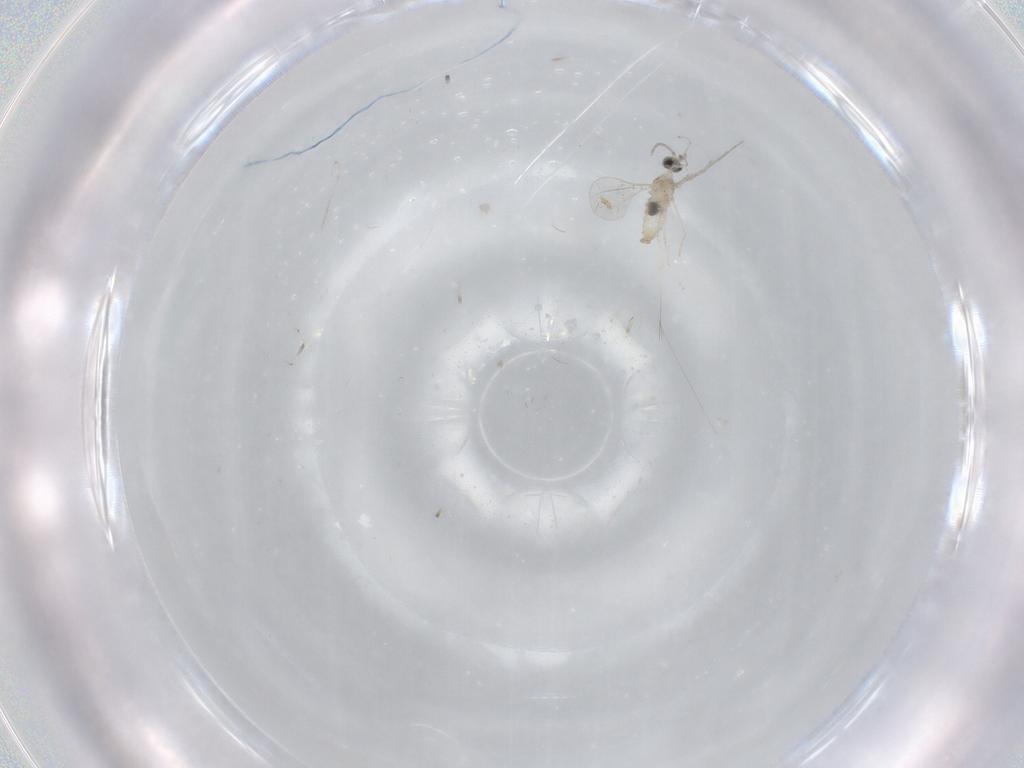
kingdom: Animalia
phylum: Arthropoda
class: Insecta
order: Diptera
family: Cecidomyiidae
